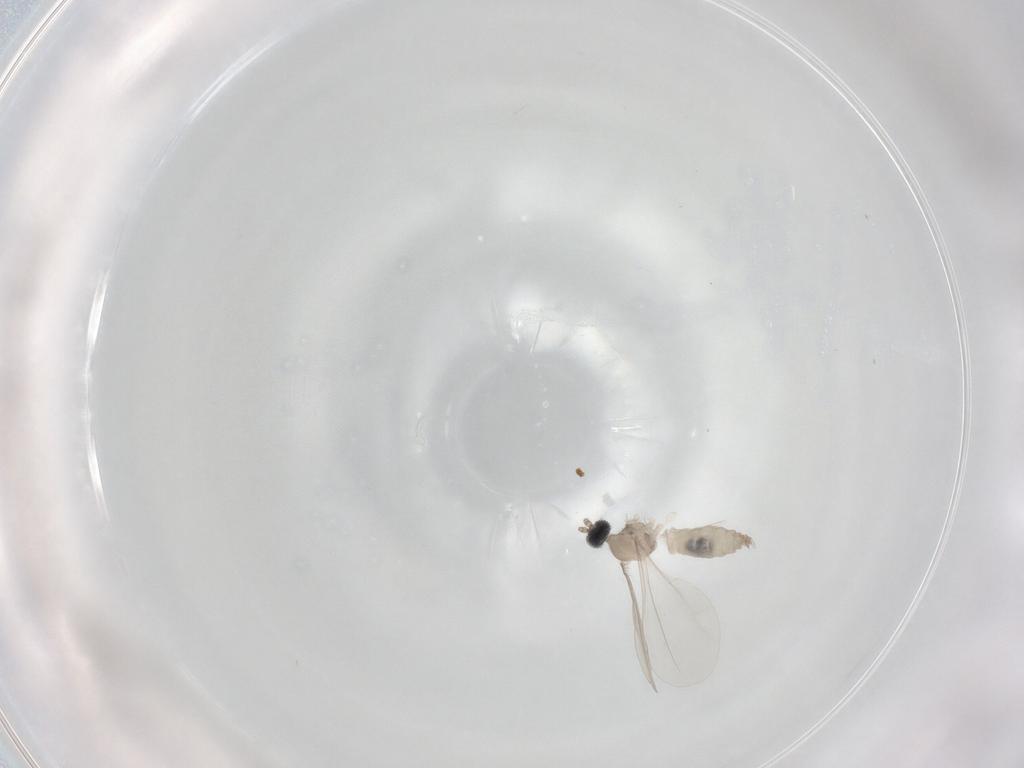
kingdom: Animalia
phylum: Arthropoda
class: Insecta
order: Diptera
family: Cecidomyiidae
